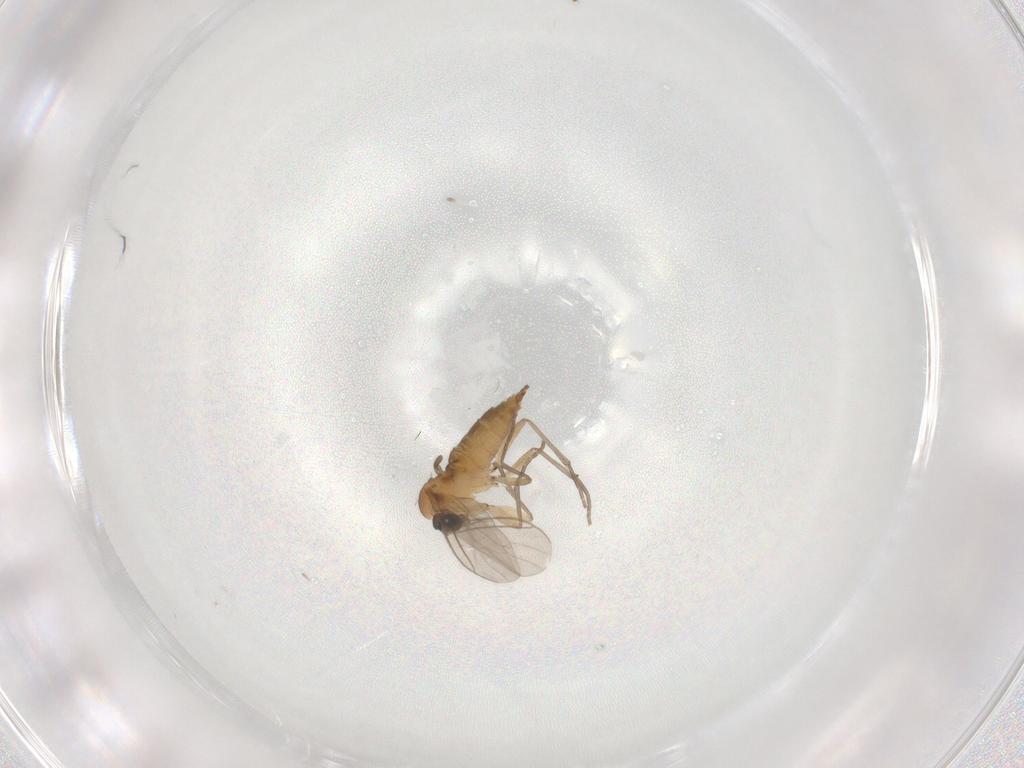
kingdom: Animalia
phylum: Arthropoda
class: Insecta
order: Diptera
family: Sciaridae
